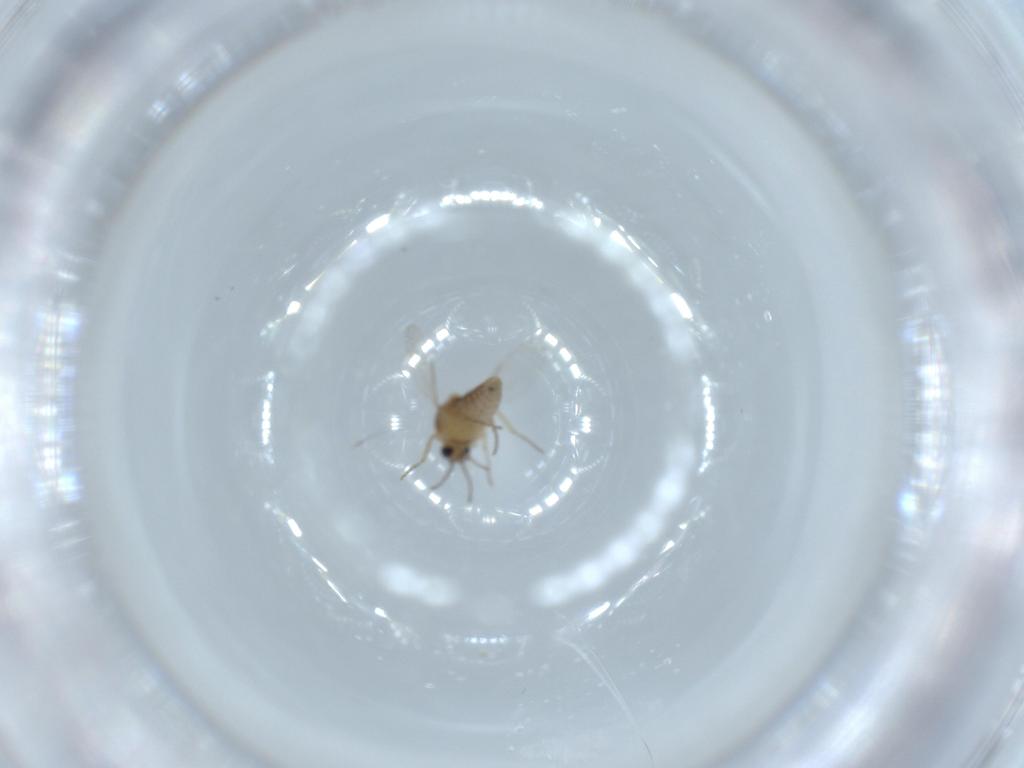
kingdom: Animalia
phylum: Arthropoda
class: Insecta
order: Diptera
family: Ceratopogonidae
